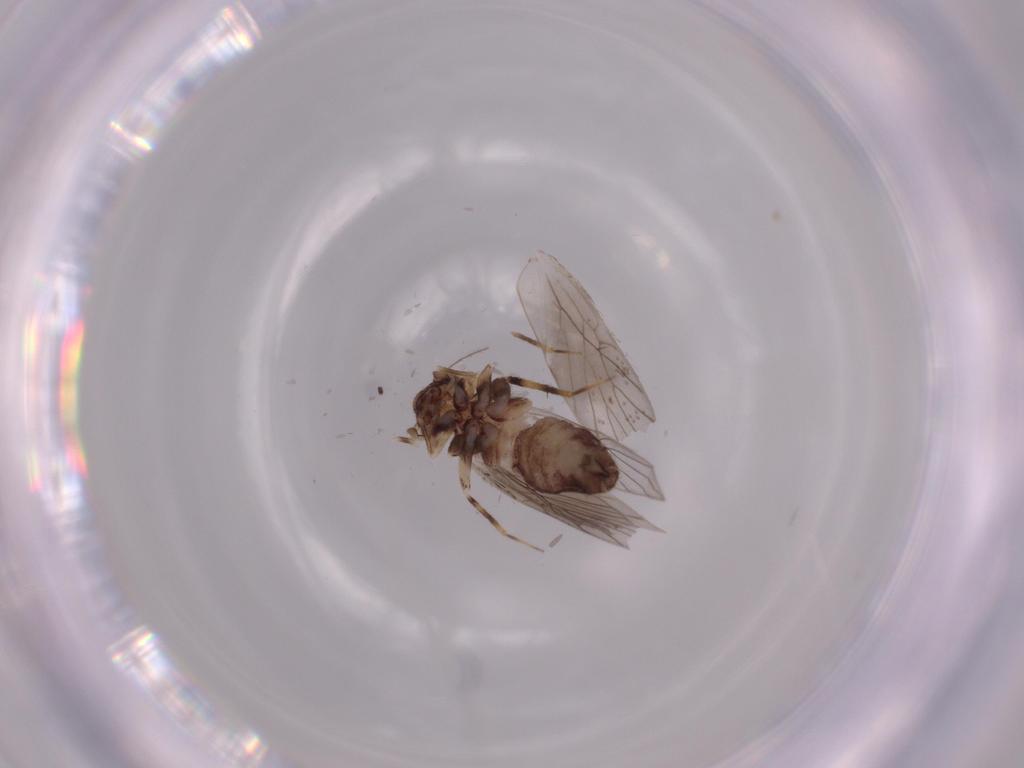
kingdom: Animalia
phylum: Arthropoda
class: Insecta
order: Psocodea
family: Lepidopsocidae
